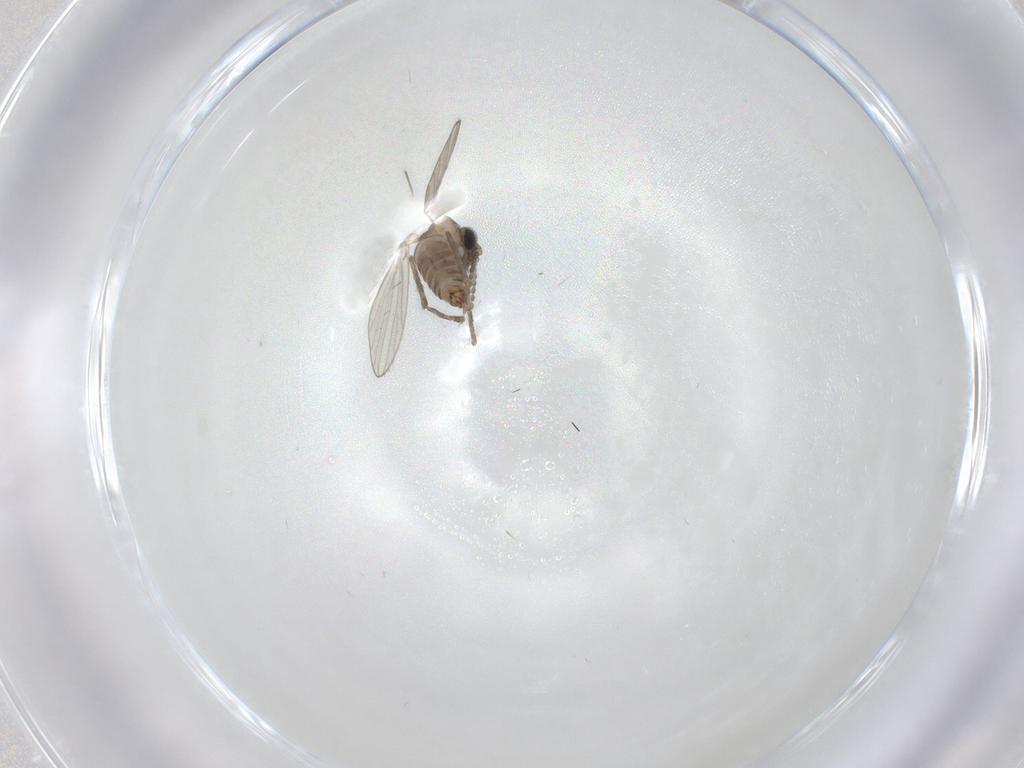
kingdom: Animalia
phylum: Arthropoda
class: Insecta
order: Diptera
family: Psychodidae
